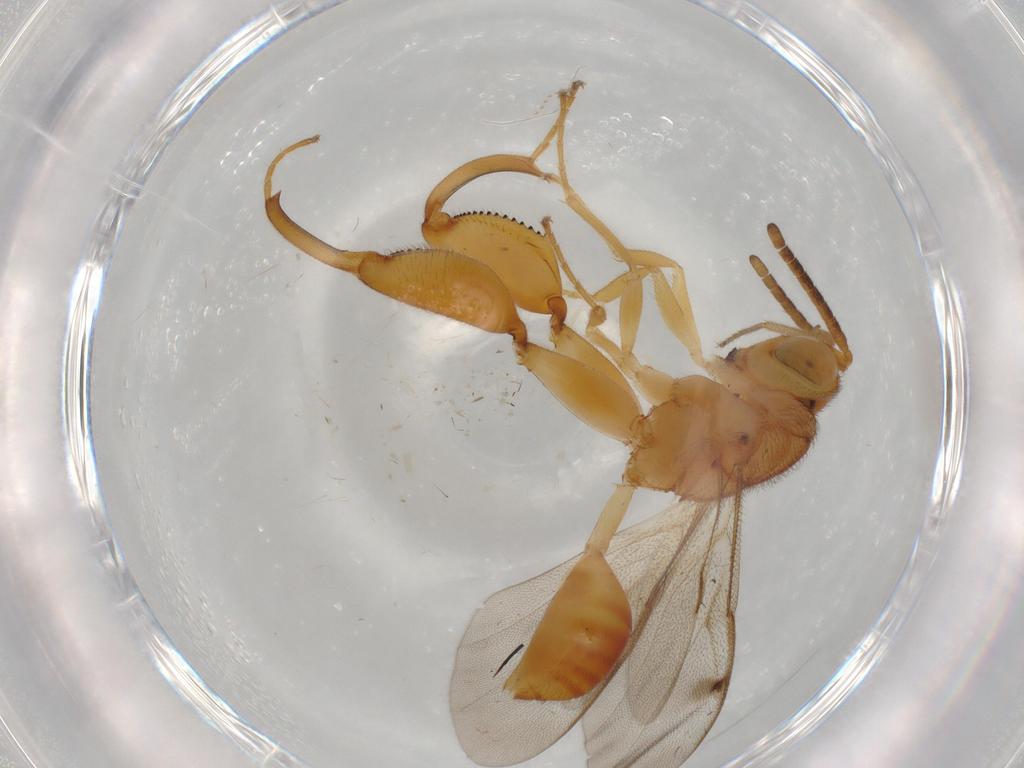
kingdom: Animalia
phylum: Arthropoda
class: Insecta
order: Hymenoptera
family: Chalcididae
